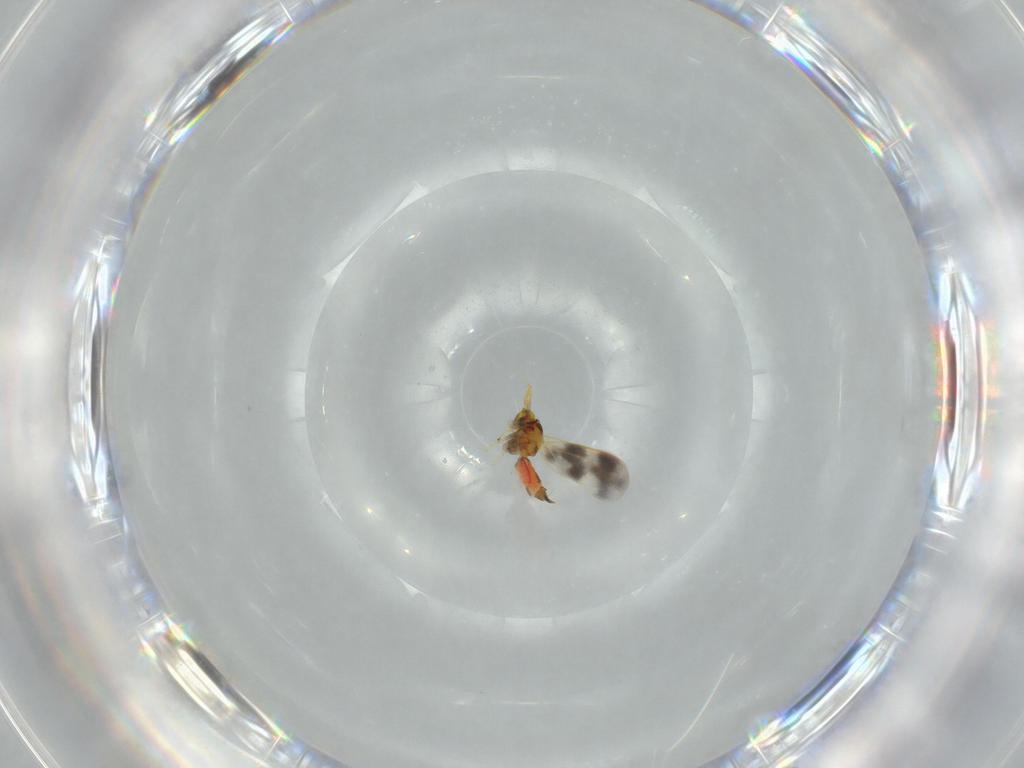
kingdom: Animalia
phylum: Arthropoda
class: Insecta
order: Hemiptera
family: Aleyrodidae
